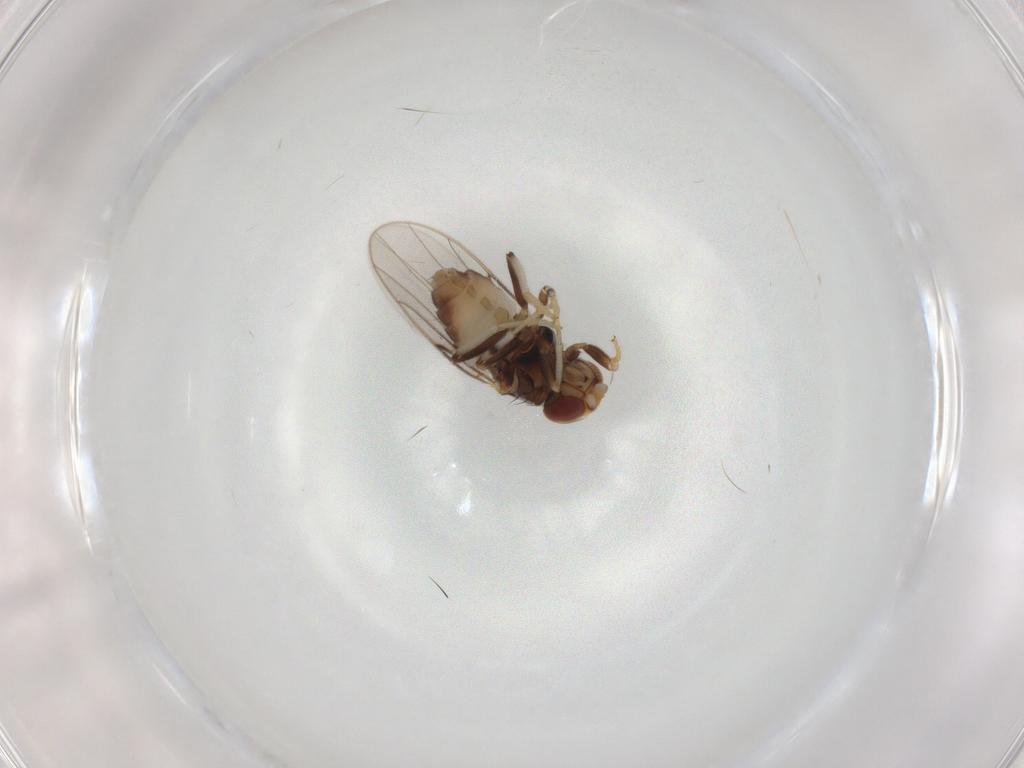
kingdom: Animalia
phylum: Arthropoda
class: Insecta
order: Diptera
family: Chloropidae
